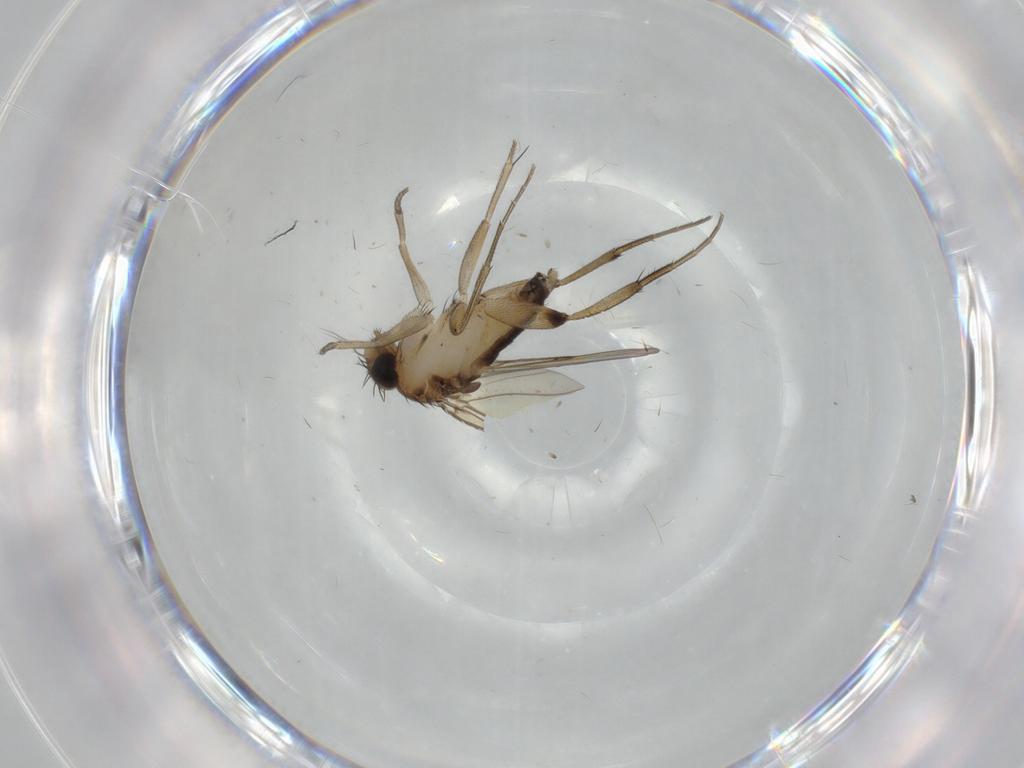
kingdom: Animalia
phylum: Arthropoda
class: Insecta
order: Diptera
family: Phoridae
